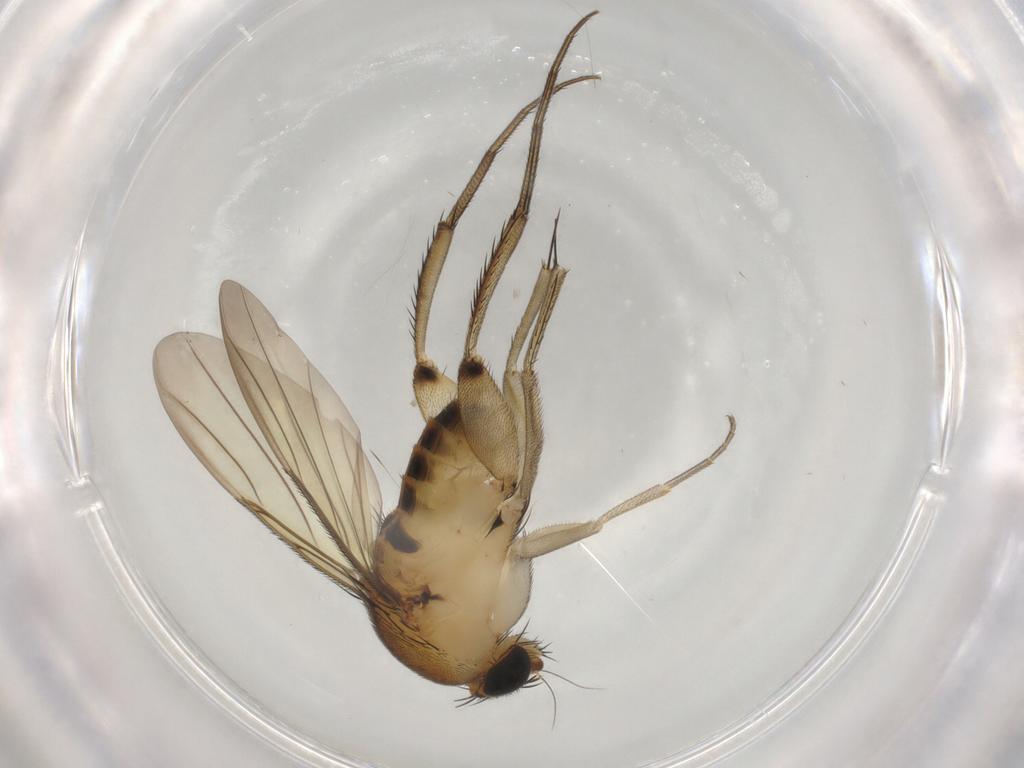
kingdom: Animalia
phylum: Arthropoda
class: Insecta
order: Diptera
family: Phoridae
